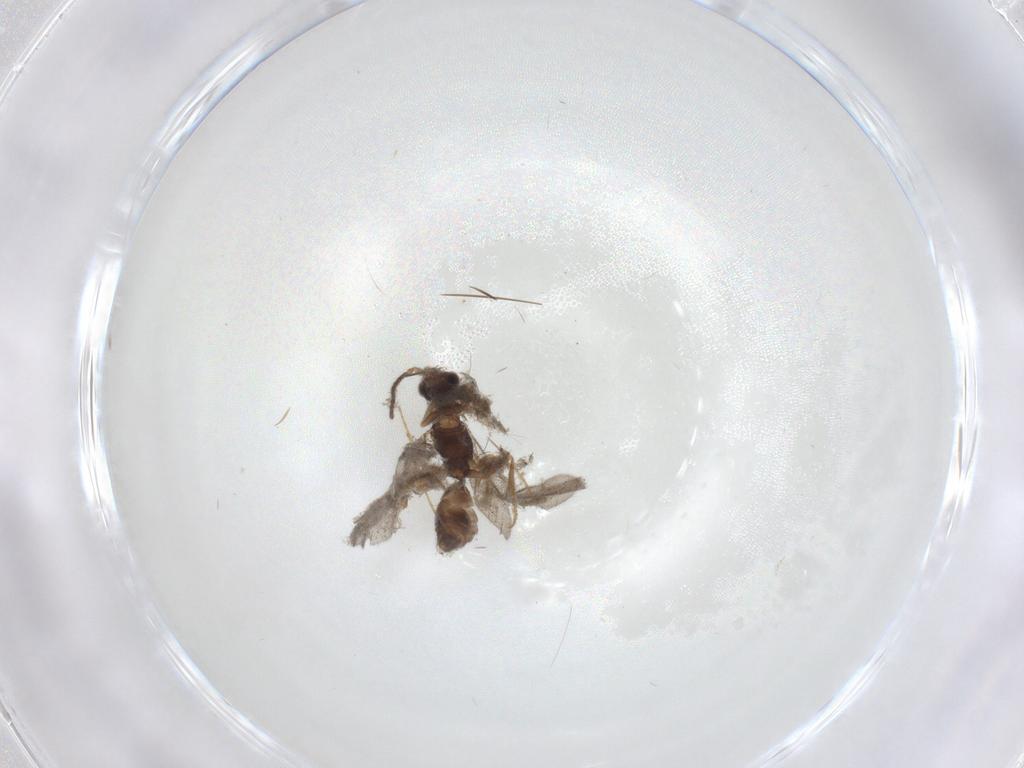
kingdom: Animalia
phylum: Arthropoda
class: Insecta
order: Hymenoptera
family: Bethylidae
